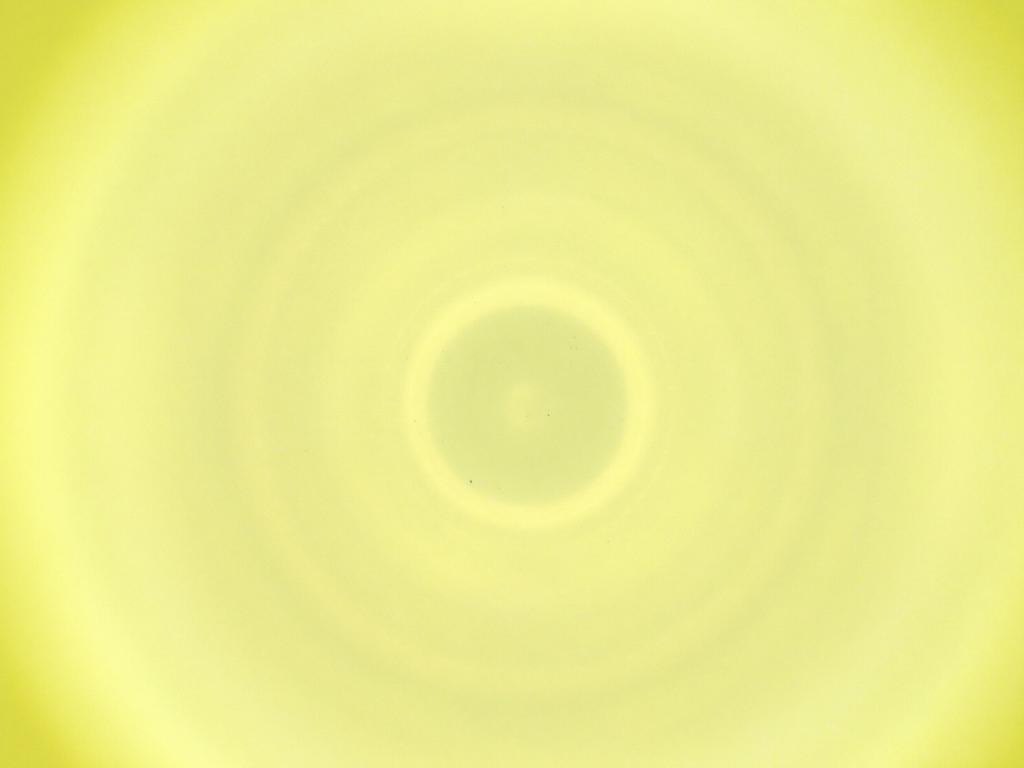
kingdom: Animalia
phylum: Arthropoda
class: Insecta
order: Diptera
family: Cecidomyiidae
